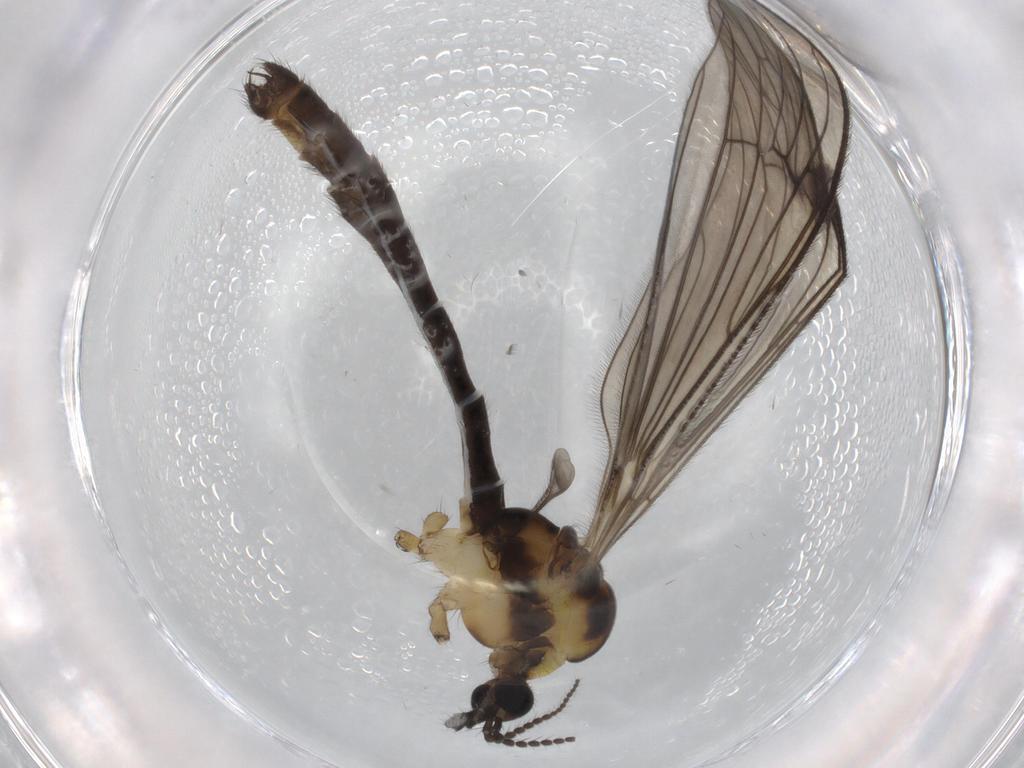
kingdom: Animalia
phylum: Arthropoda
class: Insecta
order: Diptera
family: Limoniidae
